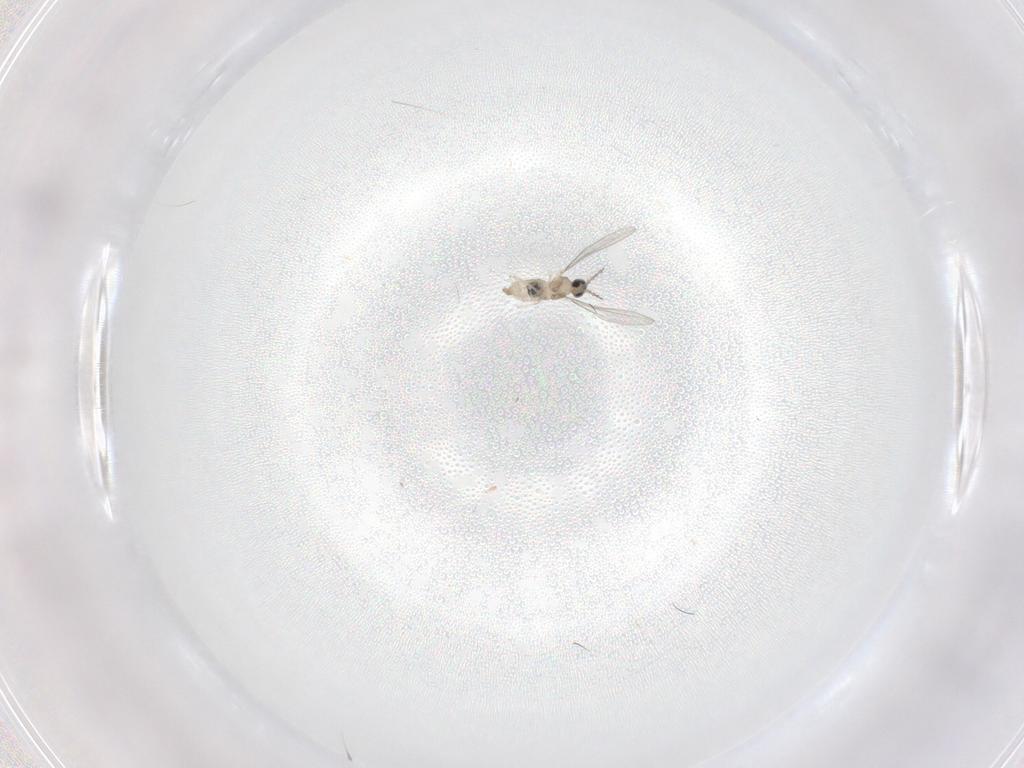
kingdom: Animalia
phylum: Arthropoda
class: Insecta
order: Diptera
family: Cecidomyiidae
